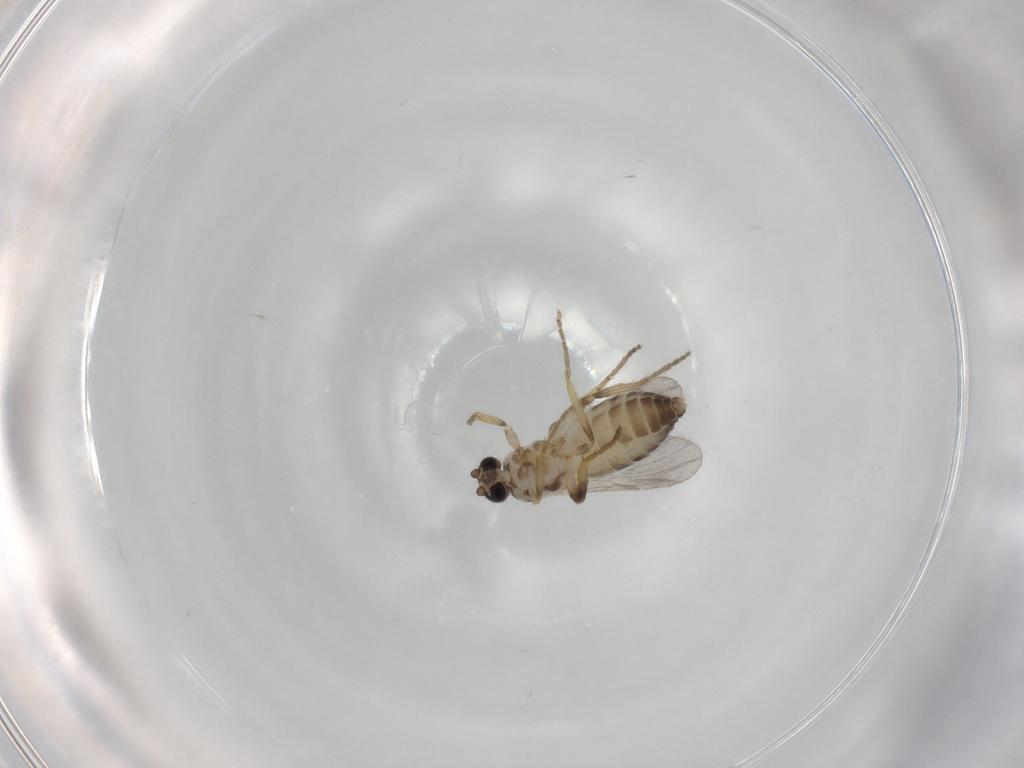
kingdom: Animalia
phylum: Arthropoda
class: Insecta
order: Diptera
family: Ceratopogonidae
